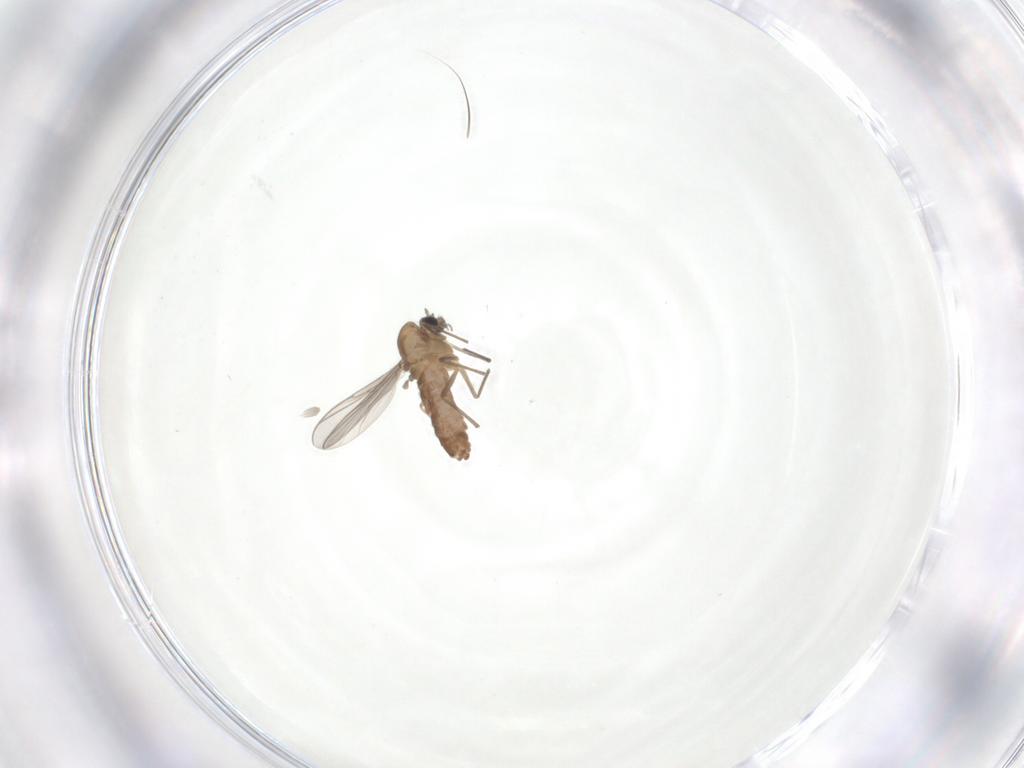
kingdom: Animalia
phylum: Arthropoda
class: Insecta
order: Diptera
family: Chironomidae
